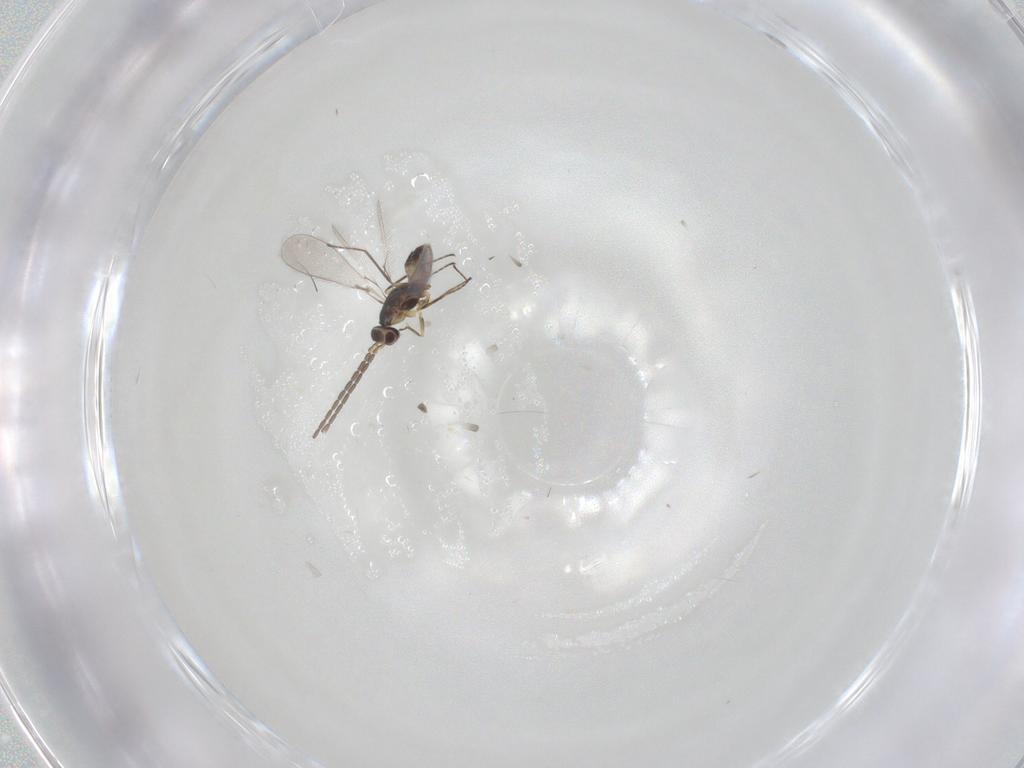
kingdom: Animalia
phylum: Arthropoda
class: Insecta
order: Hymenoptera
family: Mymaridae
